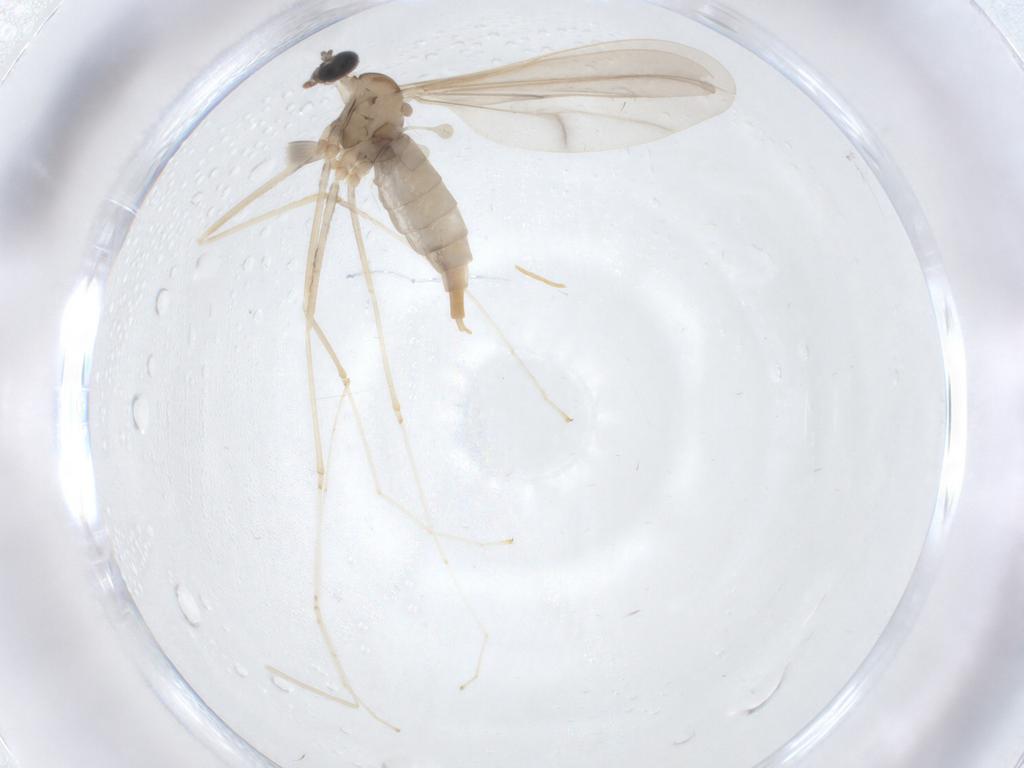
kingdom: Animalia
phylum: Arthropoda
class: Insecta
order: Diptera
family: Cecidomyiidae
